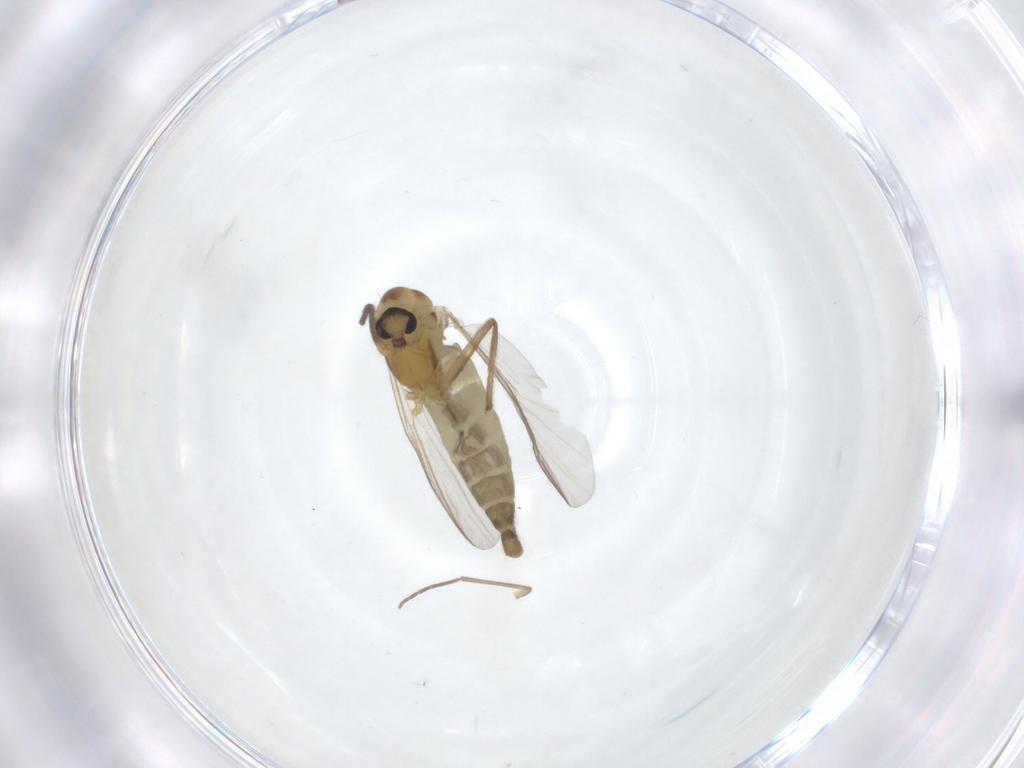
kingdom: Animalia
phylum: Arthropoda
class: Insecta
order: Diptera
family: Chironomidae
